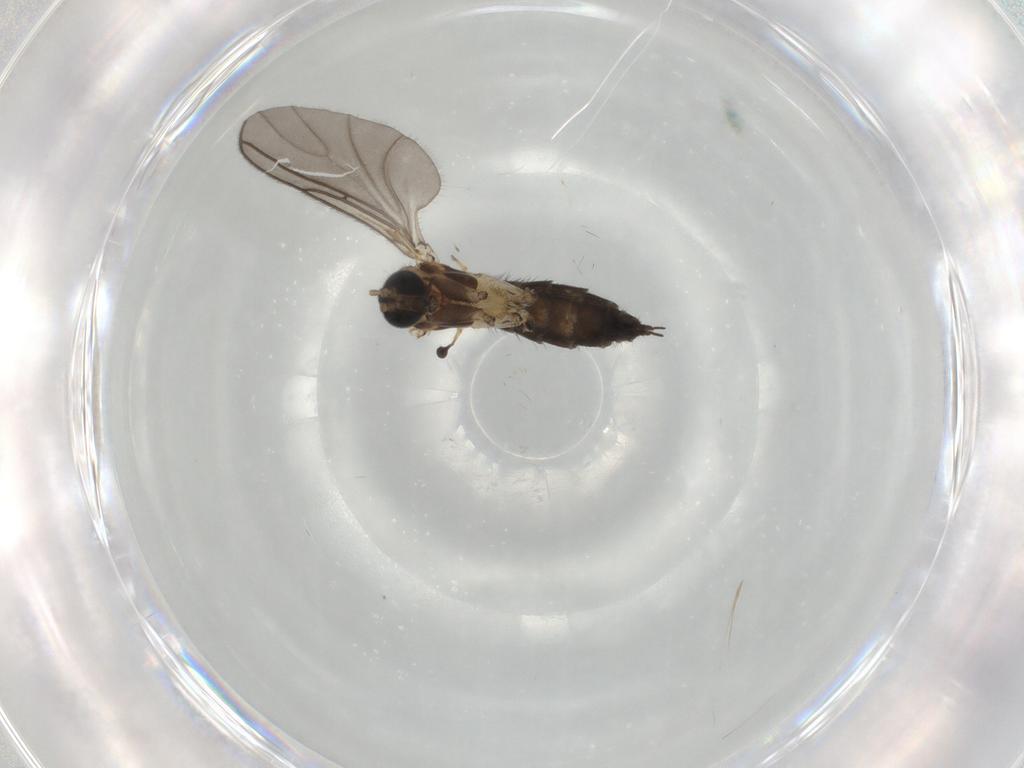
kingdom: Animalia
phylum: Arthropoda
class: Insecta
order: Diptera
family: Sciaridae
